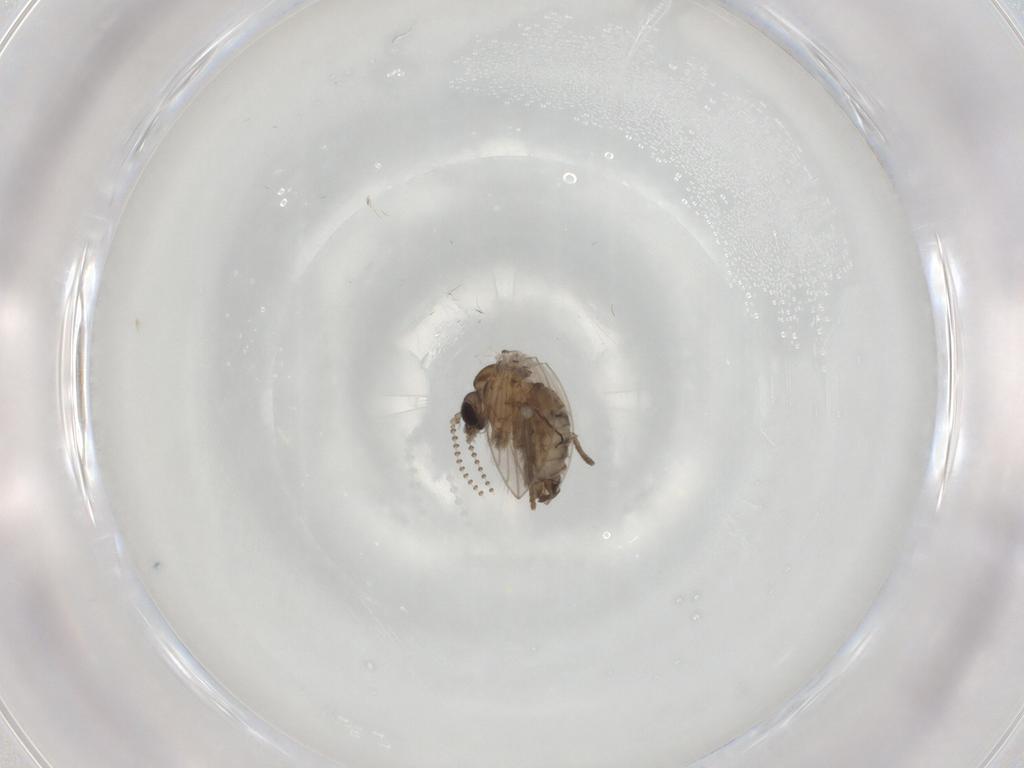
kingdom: Animalia
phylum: Arthropoda
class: Insecta
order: Diptera
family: Psychodidae
